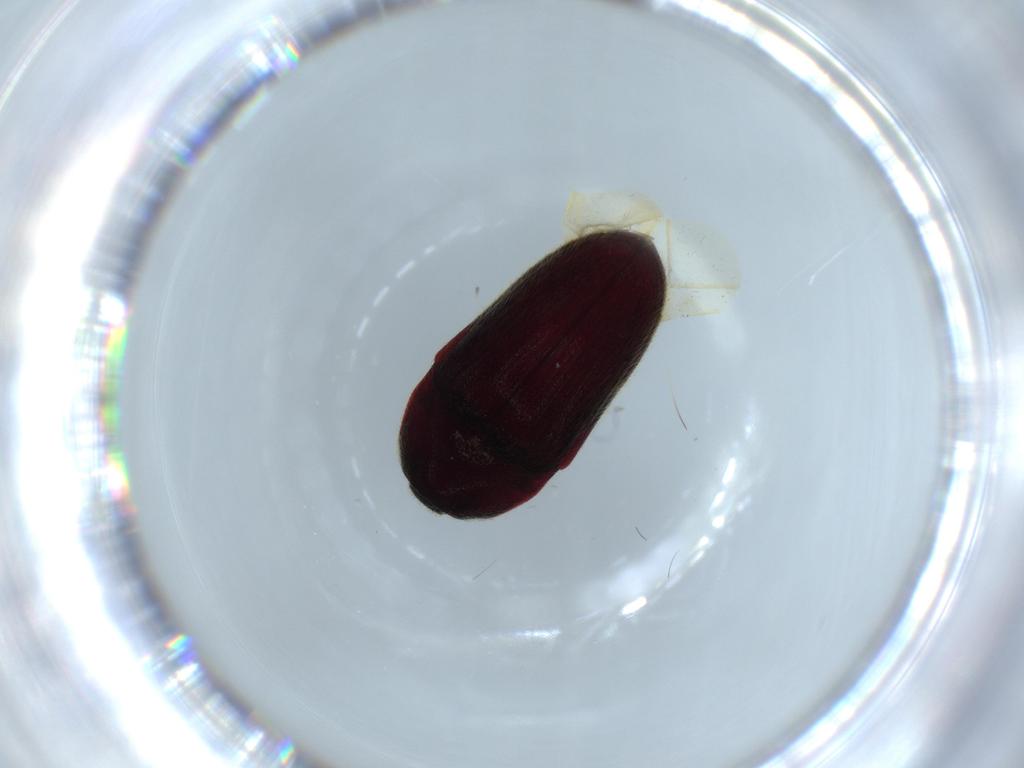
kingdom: Animalia
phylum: Arthropoda
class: Insecta
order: Coleoptera
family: Throscidae
